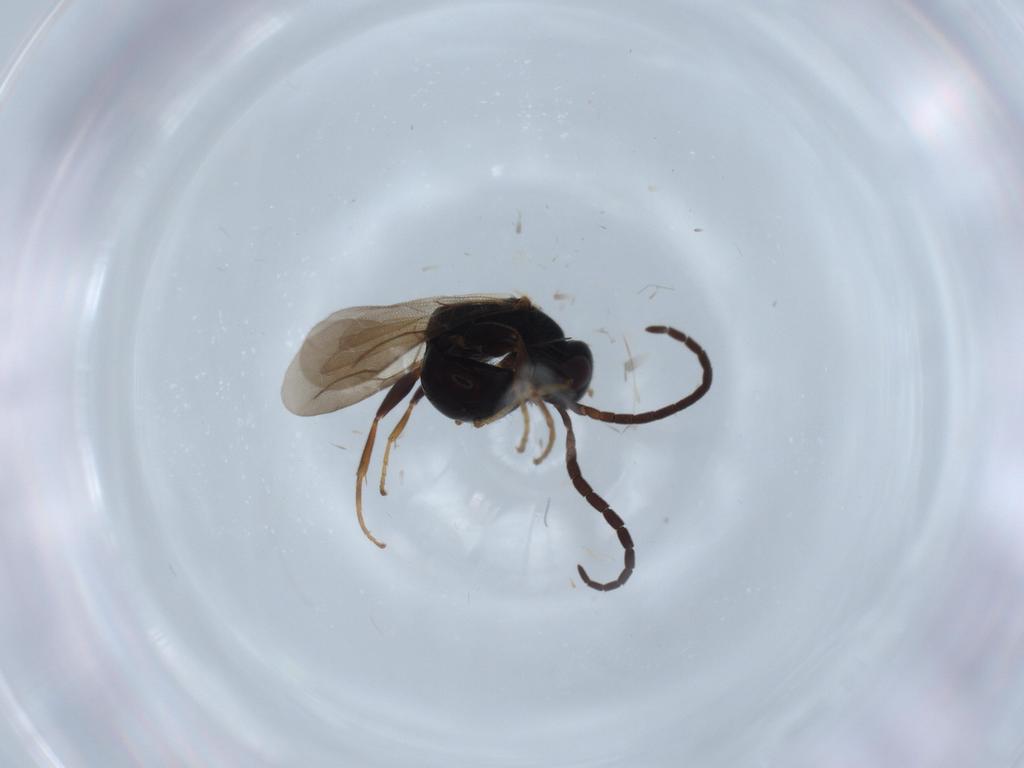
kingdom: Animalia
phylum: Arthropoda
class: Insecta
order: Hymenoptera
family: Bethylidae
